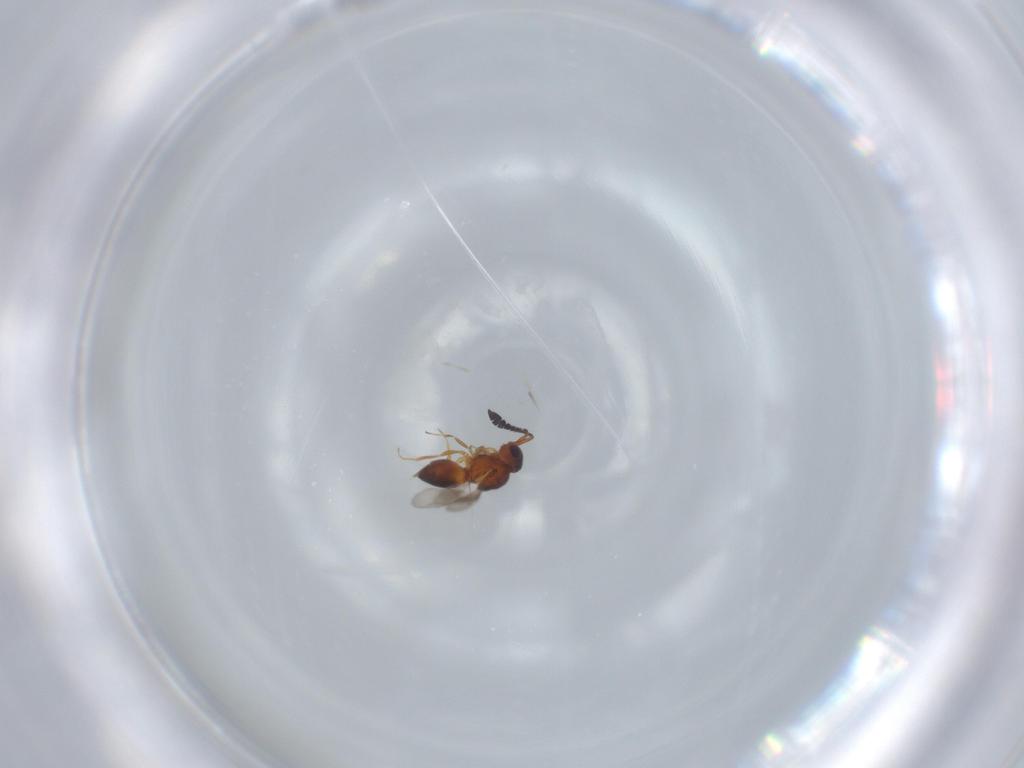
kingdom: Animalia
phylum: Arthropoda
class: Insecta
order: Hymenoptera
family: Ceraphronidae
